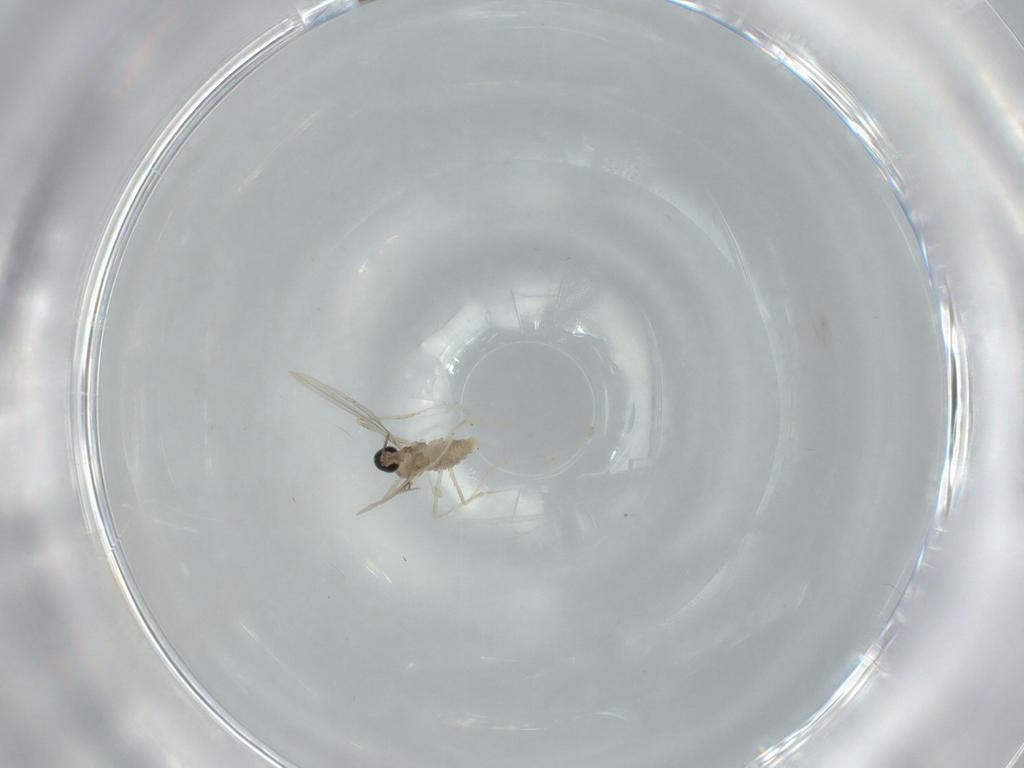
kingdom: Animalia
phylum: Arthropoda
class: Insecta
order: Diptera
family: Cecidomyiidae
